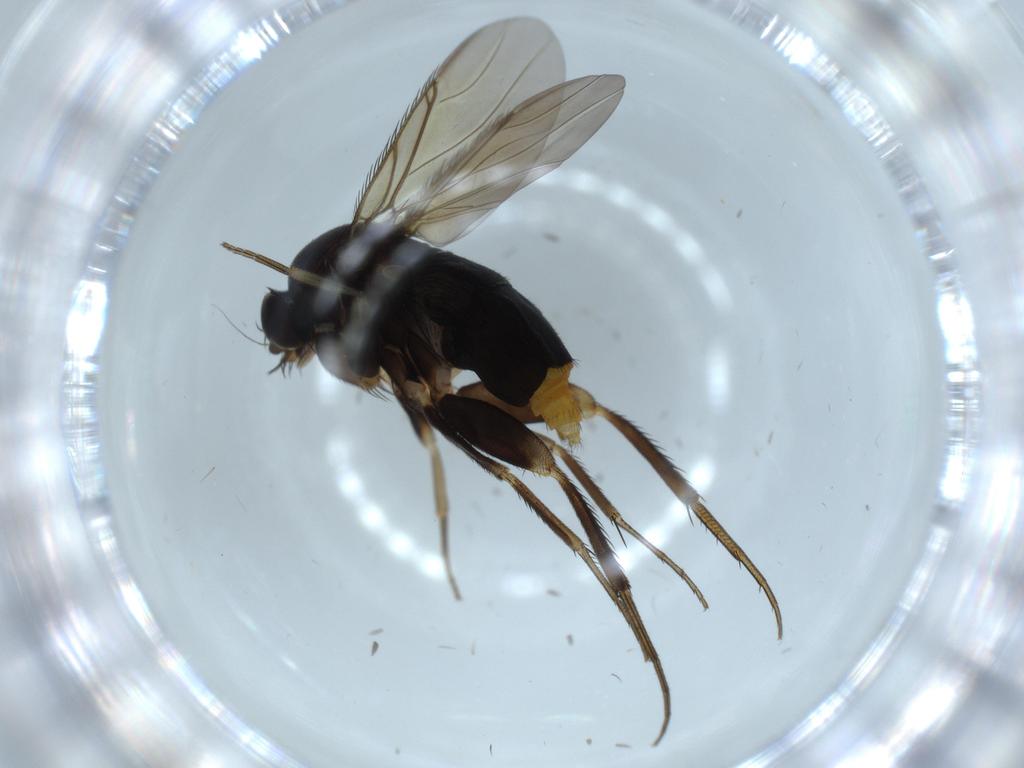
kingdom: Animalia
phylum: Arthropoda
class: Insecta
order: Diptera
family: Phoridae
